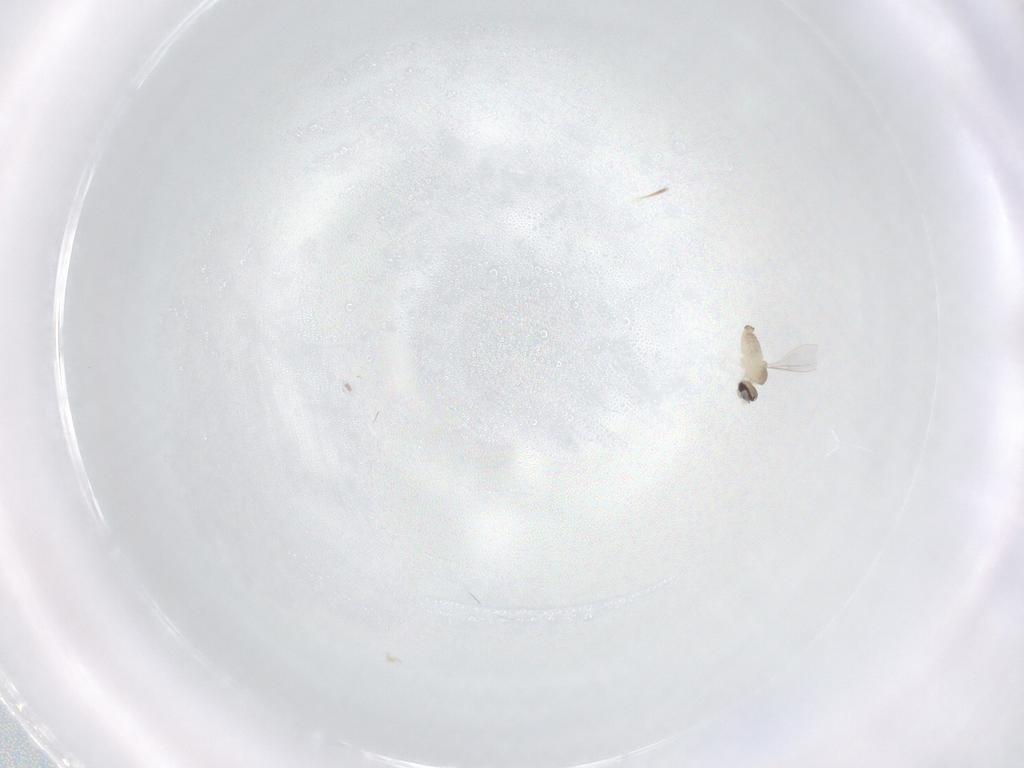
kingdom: Animalia
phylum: Arthropoda
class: Insecta
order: Diptera
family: Cecidomyiidae
